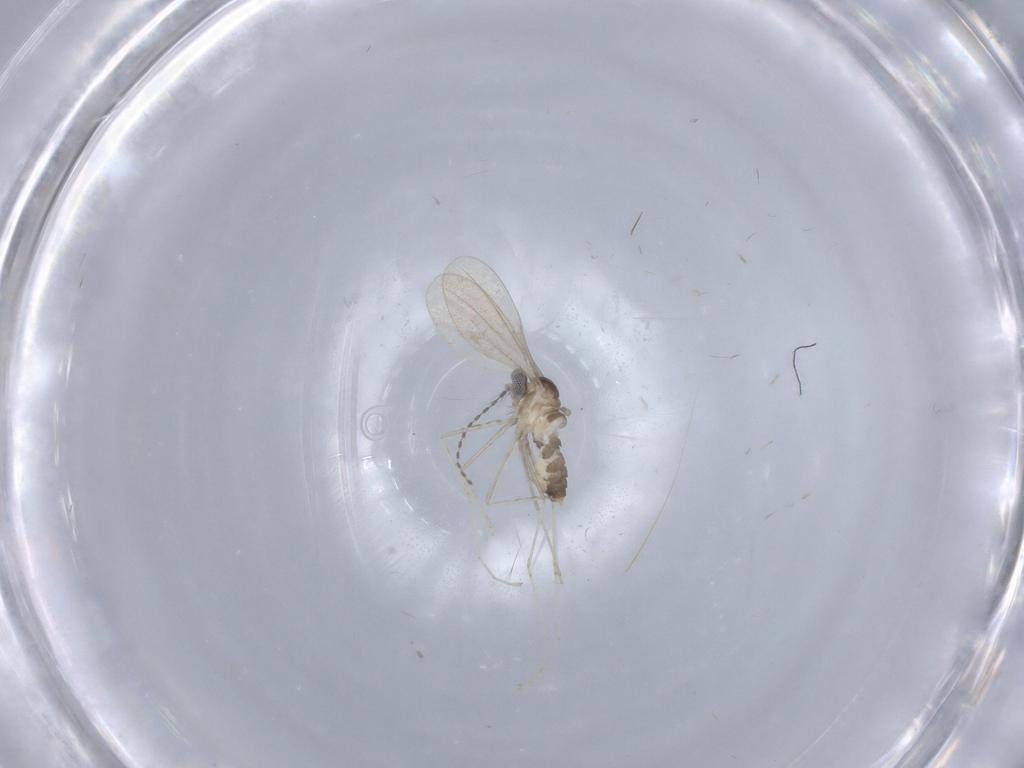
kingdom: Animalia
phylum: Arthropoda
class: Insecta
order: Diptera
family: Cecidomyiidae
